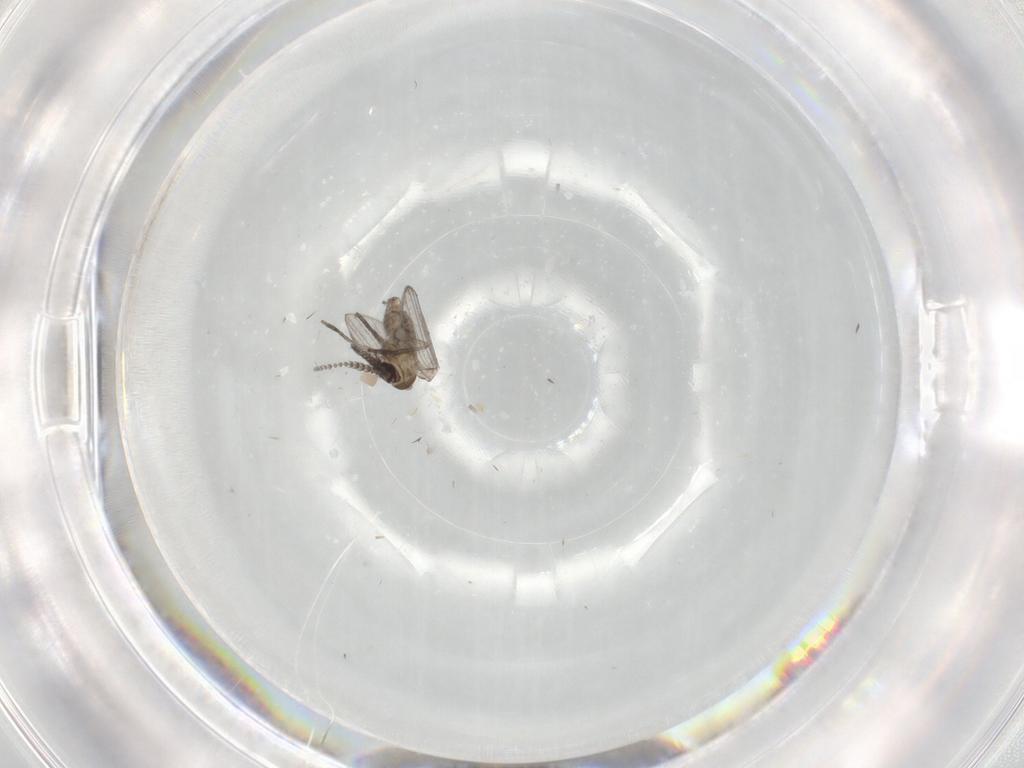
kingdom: Animalia
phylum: Arthropoda
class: Insecta
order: Diptera
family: Psychodidae
